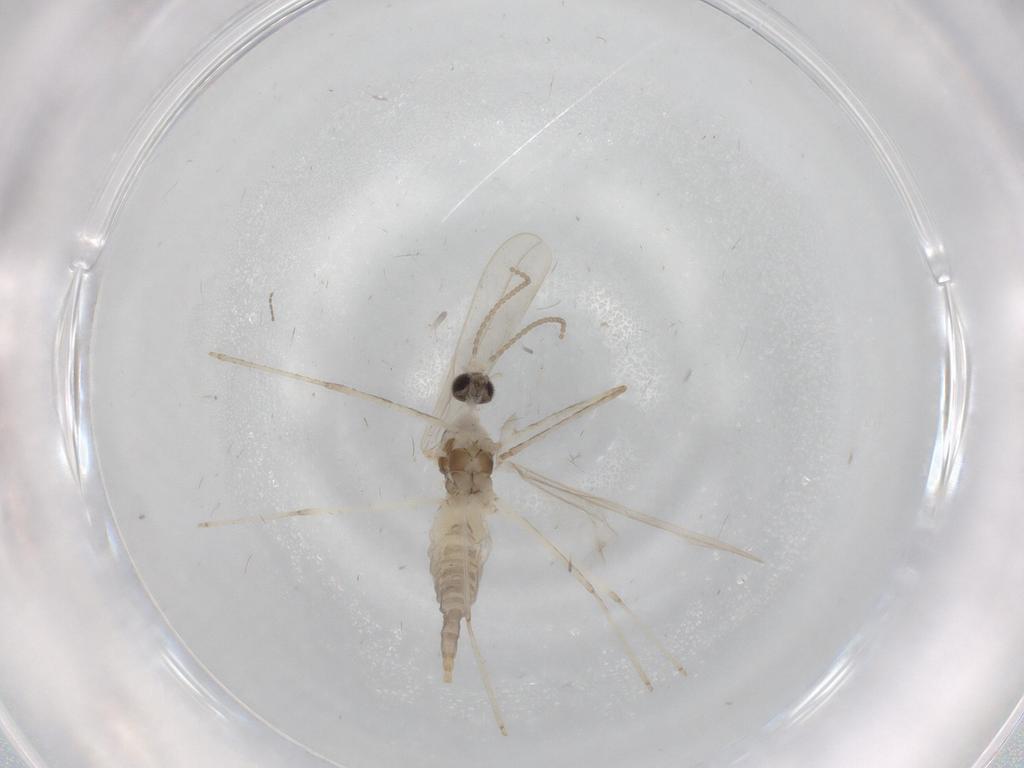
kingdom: Animalia
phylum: Arthropoda
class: Insecta
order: Diptera
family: Cecidomyiidae
